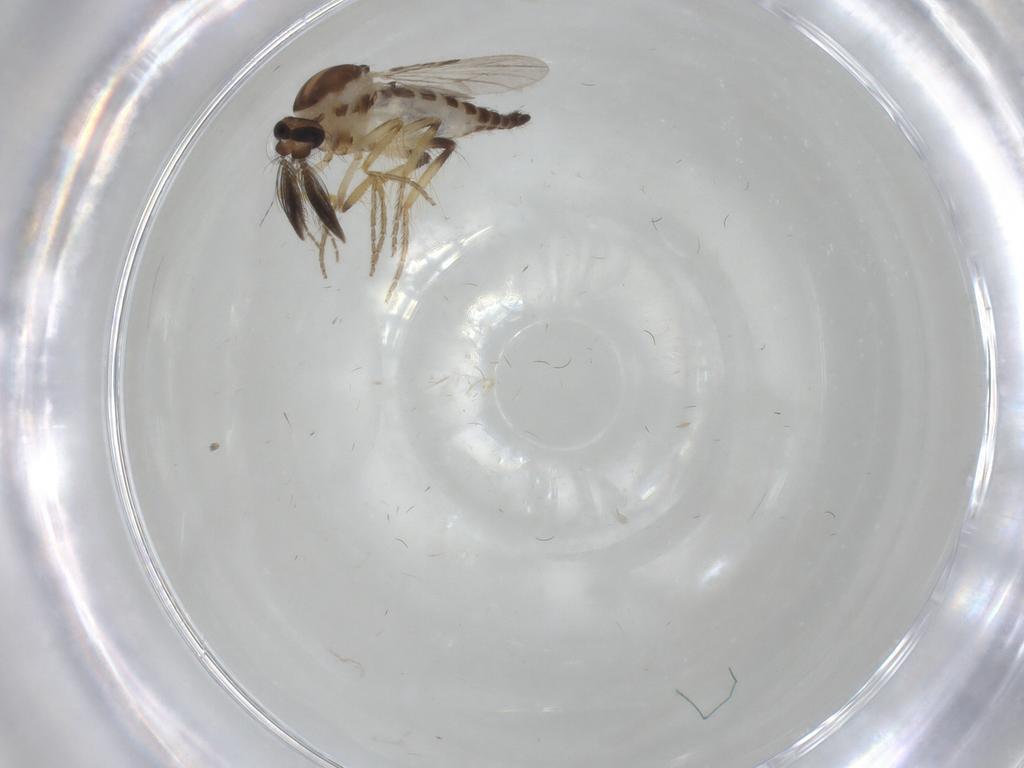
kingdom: Animalia
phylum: Arthropoda
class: Insecta
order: Diptera
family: Ceratopogonidae
